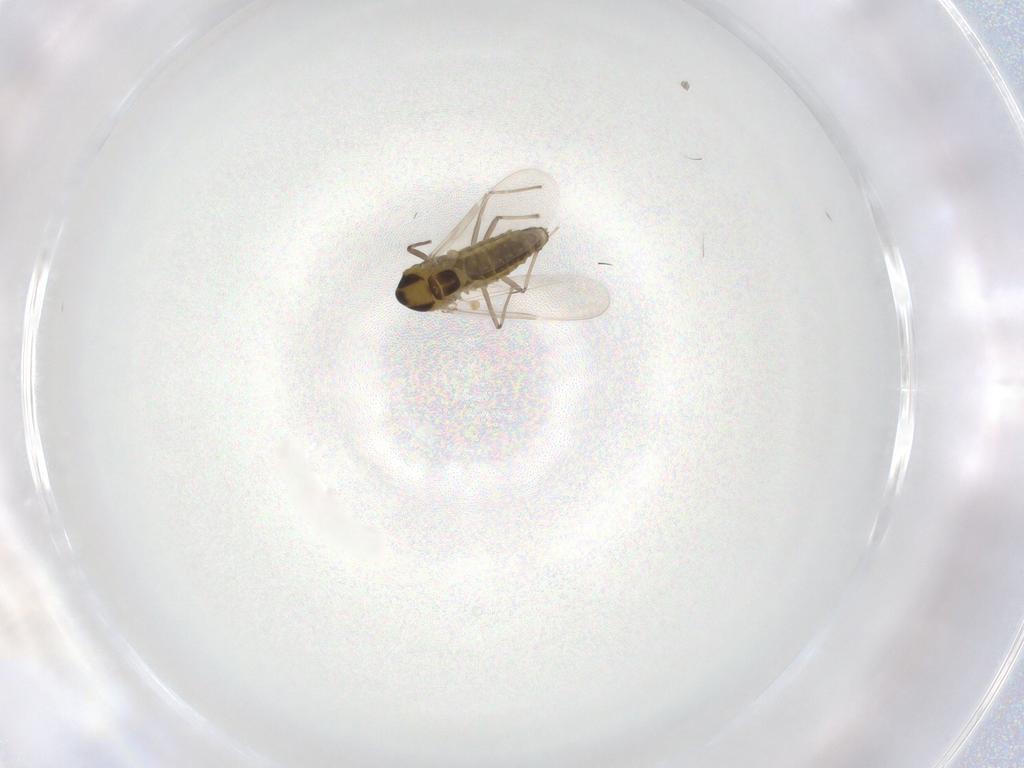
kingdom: Animalia
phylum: Arthropoda
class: Insecta
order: Diptera
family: Chironomidae
